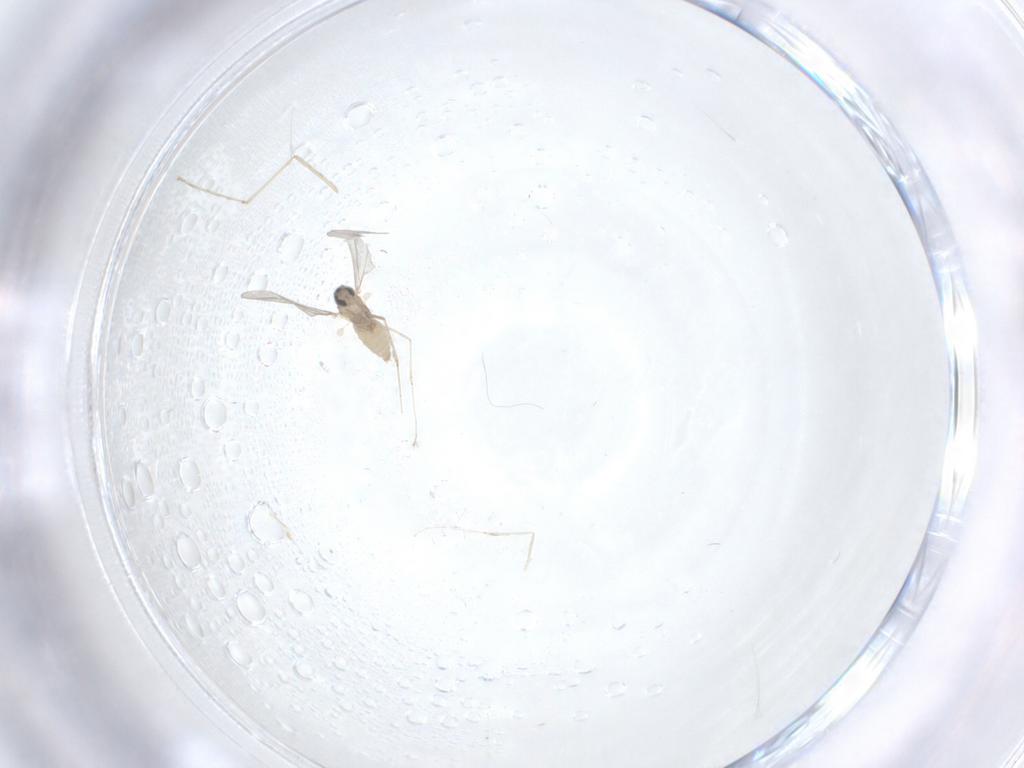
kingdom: Animalia
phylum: Arthropoda
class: Insecta
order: Diptera
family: Cecidomyiidae
